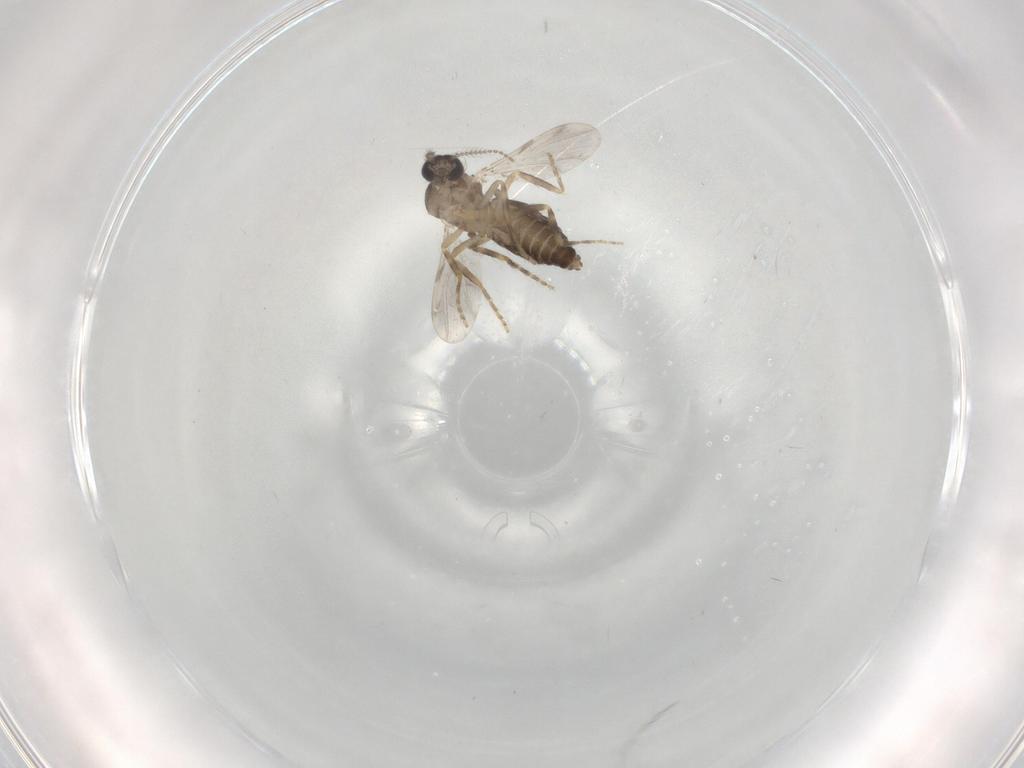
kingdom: Animalia
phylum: Arthropoda
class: Insecta
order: Diptera
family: Ceratopogonidae
